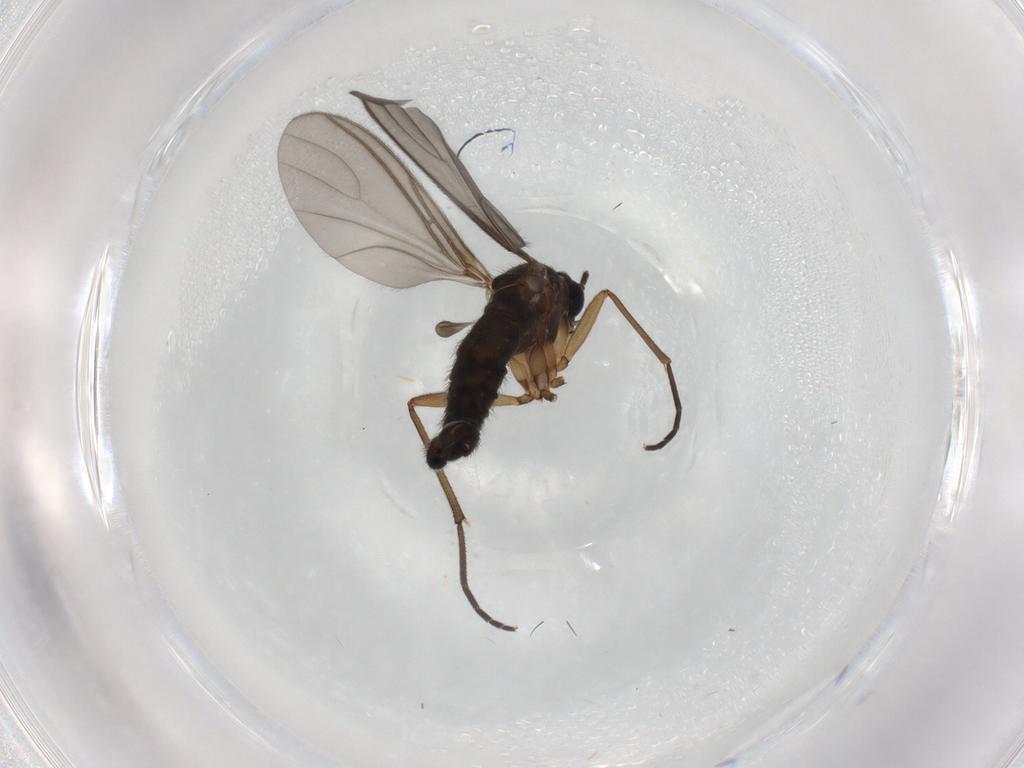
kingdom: Animalia
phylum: Arthropoda
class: Insecta
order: Diptera
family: Sciaridae
